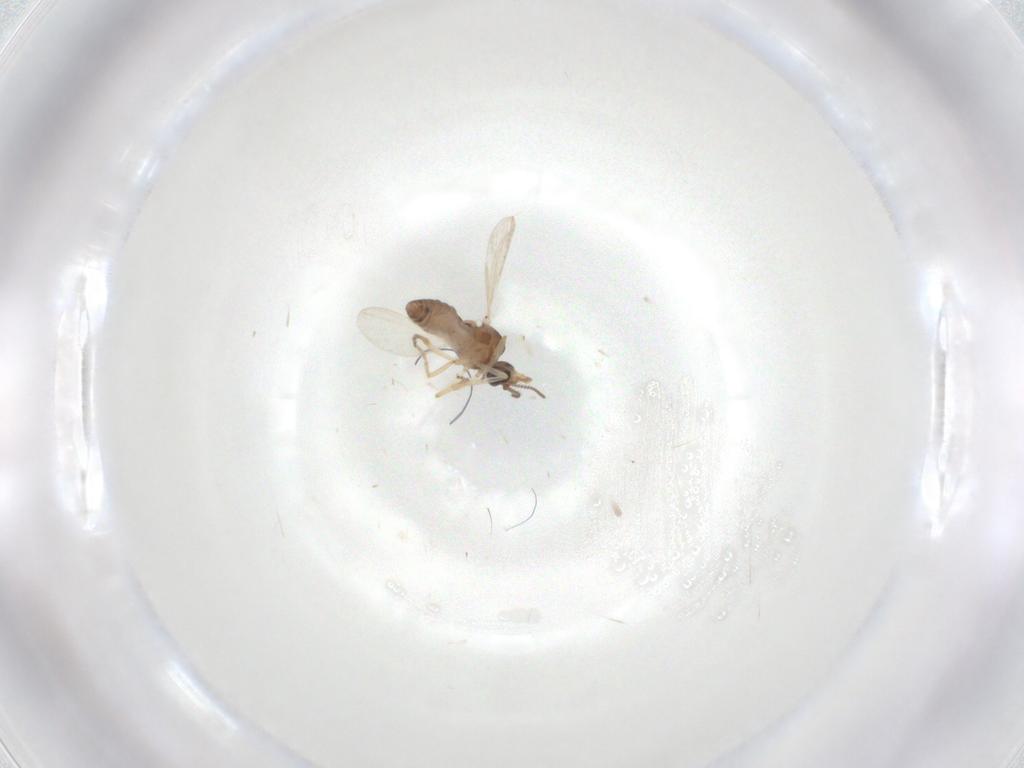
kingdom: Animalia
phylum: Arthropoda
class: Insecta
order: Diptera
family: Ceratopogonidae
